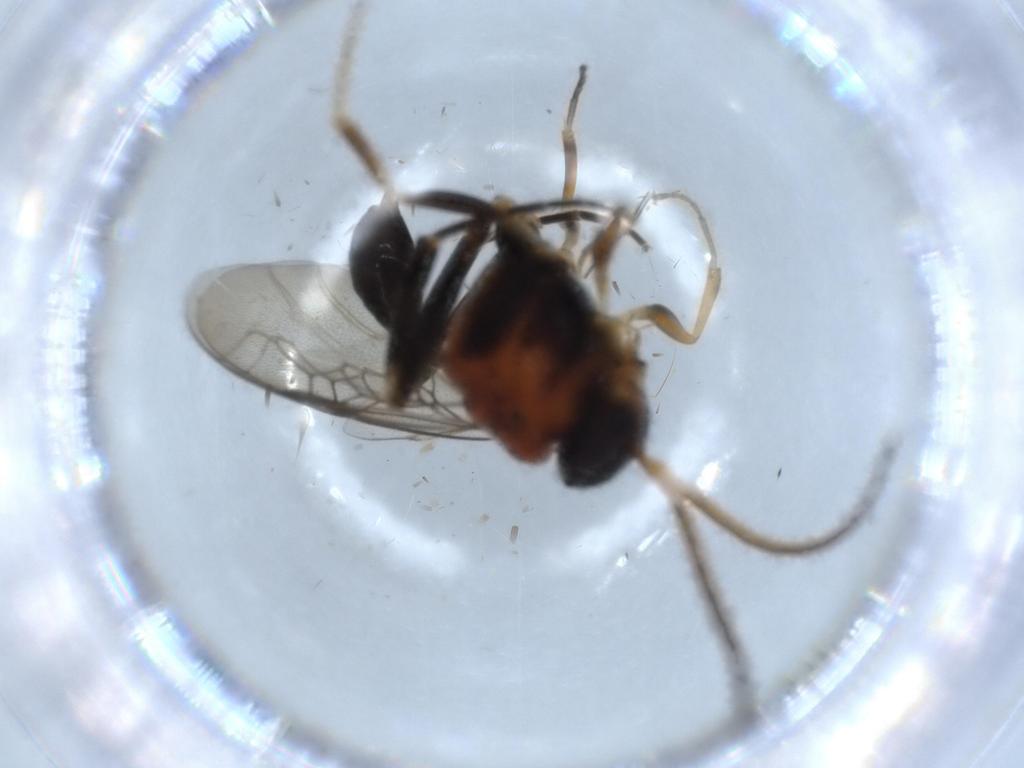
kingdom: Animalia
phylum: Arthropoda
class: Insecta
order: Hymenoptera
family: Evaniidae
